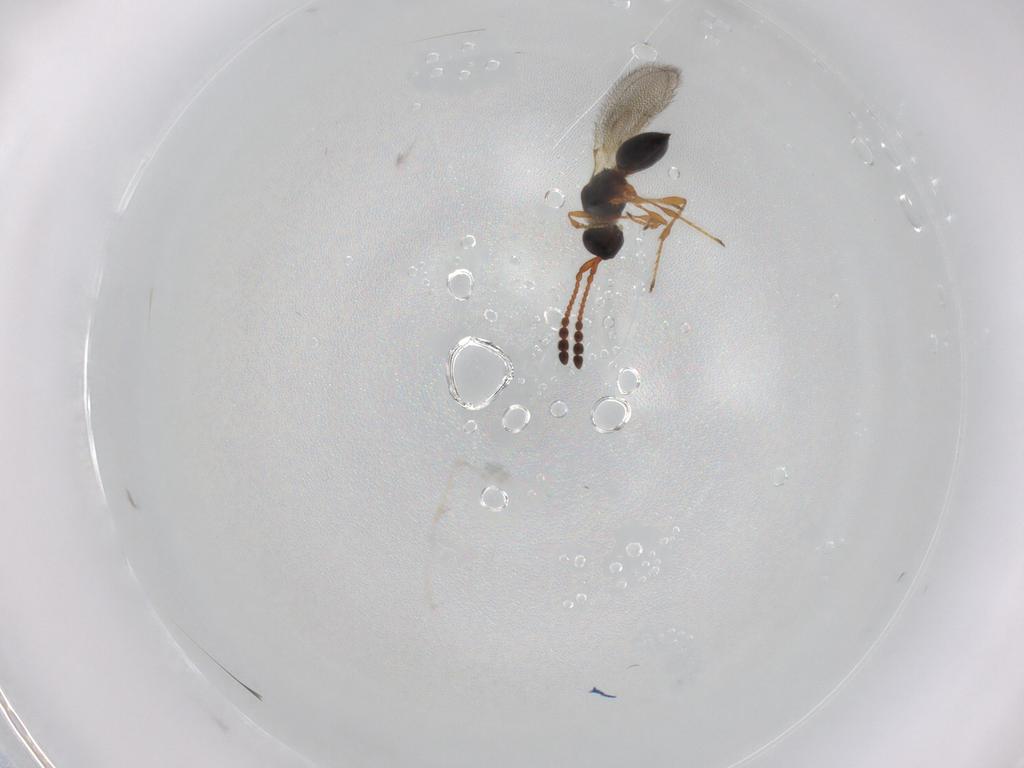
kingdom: Animalia
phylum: Arthropoda
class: Insecta
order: Hymenoptera
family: Diapriidae
